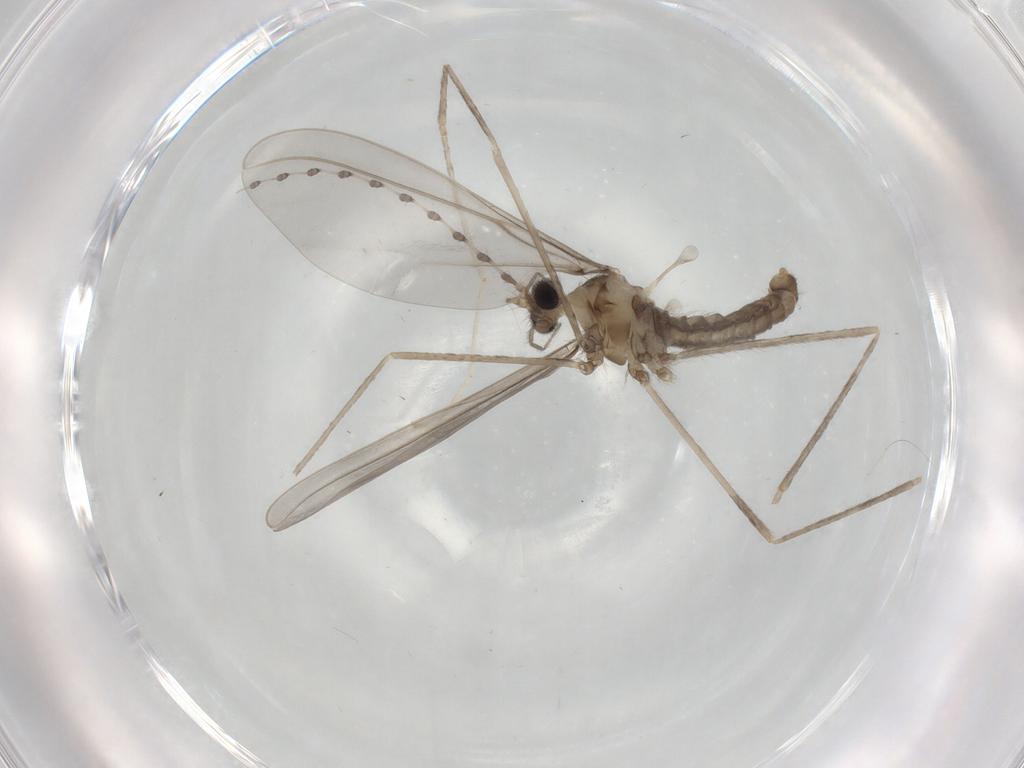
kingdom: Animalia
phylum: Arthropoda
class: Insecta
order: Diptera
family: Cecidomyiidae
